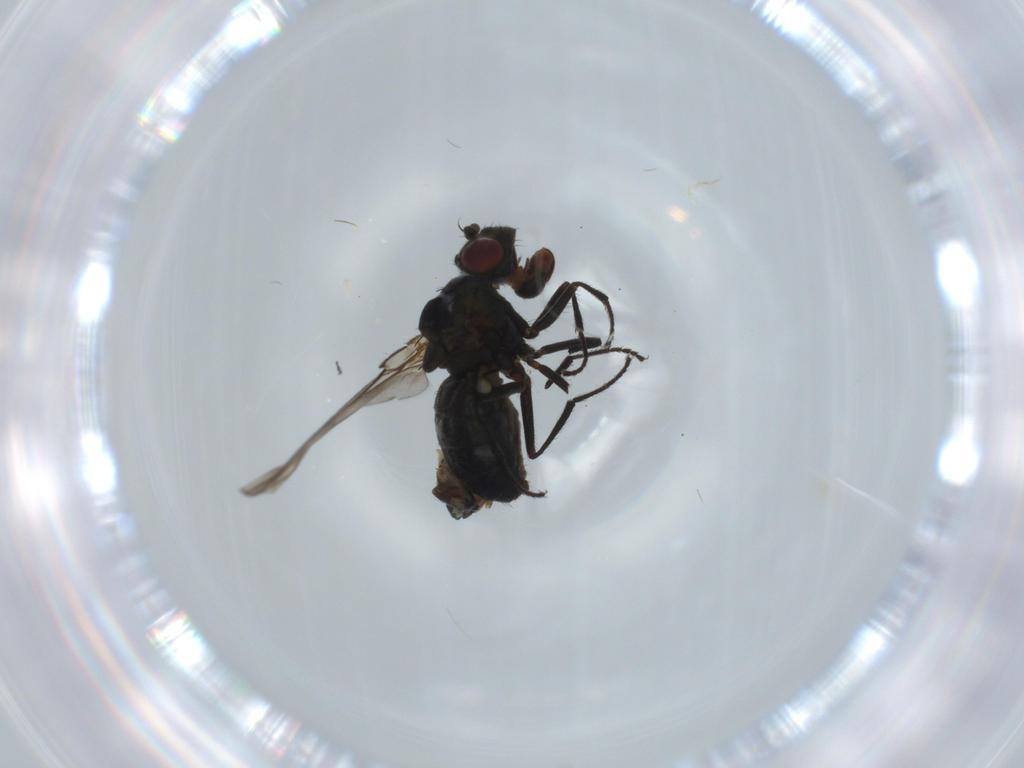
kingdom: Animalia
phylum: Arthropoda
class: Insecta
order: Diptera
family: Chironomidae
